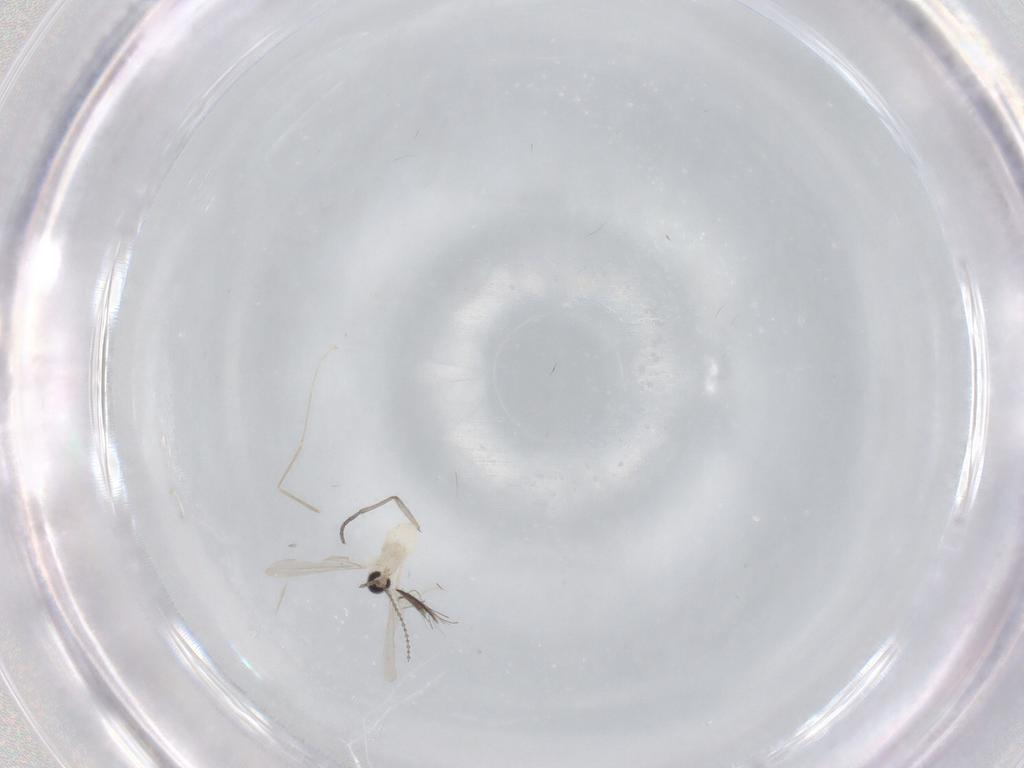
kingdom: Animalia
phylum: Arthropoda
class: Insecta
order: Diptera
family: Sciaridae
